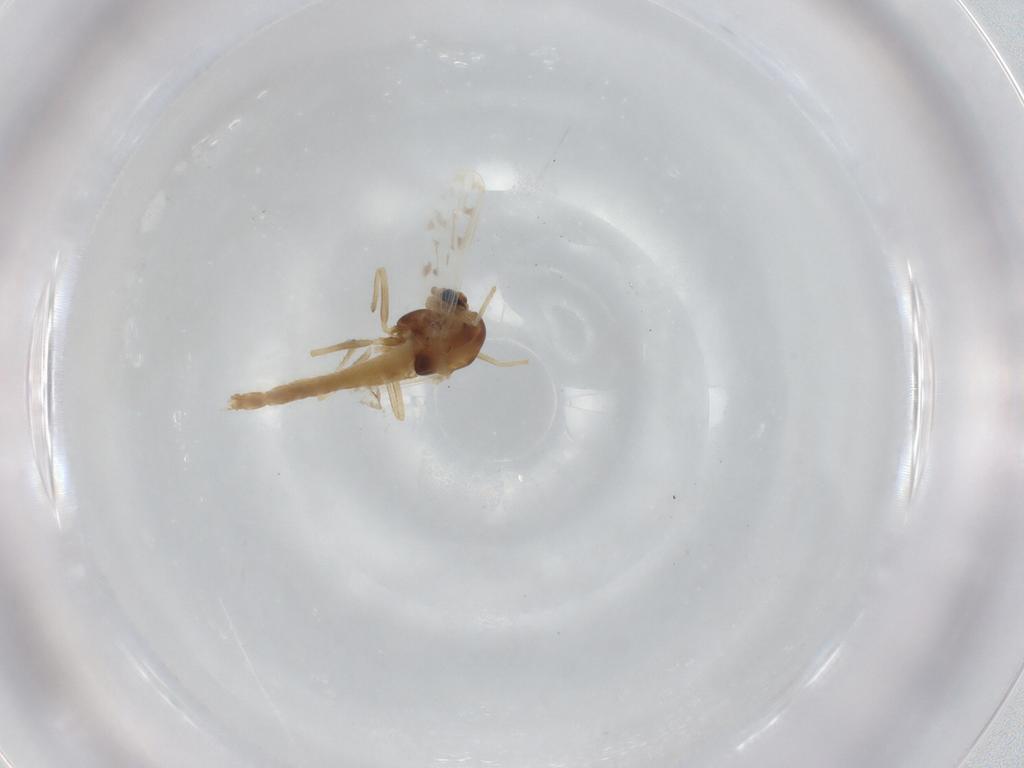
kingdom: Animalia
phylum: Arthropoda
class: Insecta
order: Diptera
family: Chironomidae
